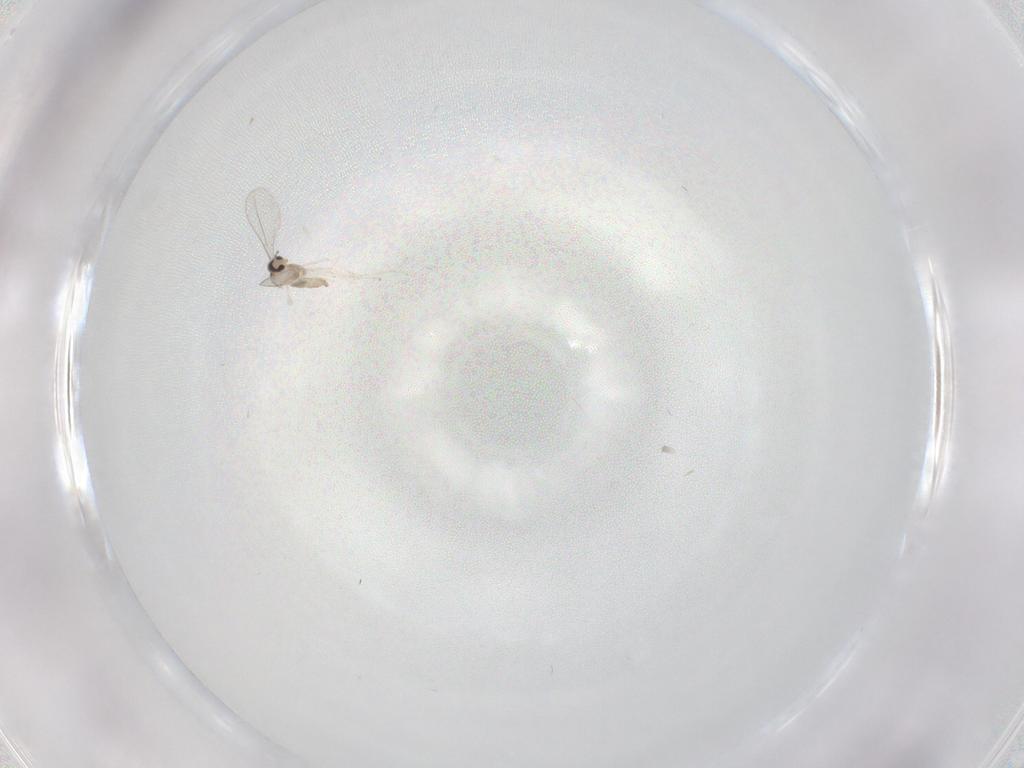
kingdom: Animalia
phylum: Arthropoda
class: Insecta
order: Diptera
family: Cecidomyiidae
